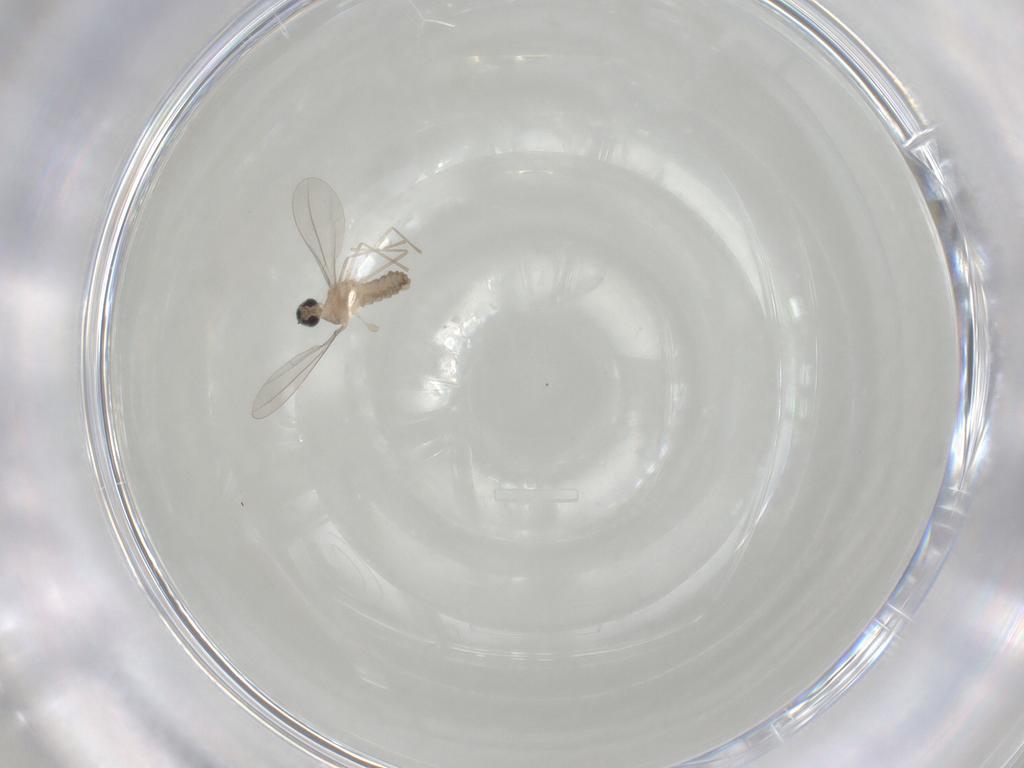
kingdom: Animalia
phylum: Arthropoda
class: Insecta
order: Diptera
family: Cecidomyiidae
